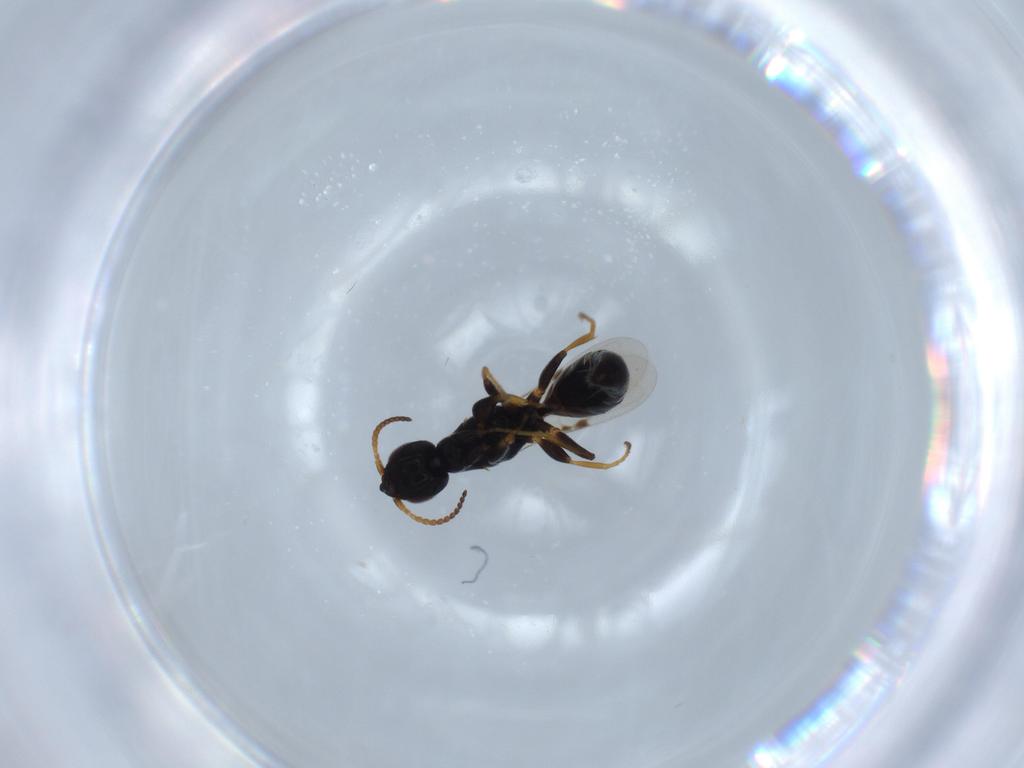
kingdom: Animalia
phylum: Arthropoda
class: Insecta
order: Hymenoptera
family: Bethylidae
